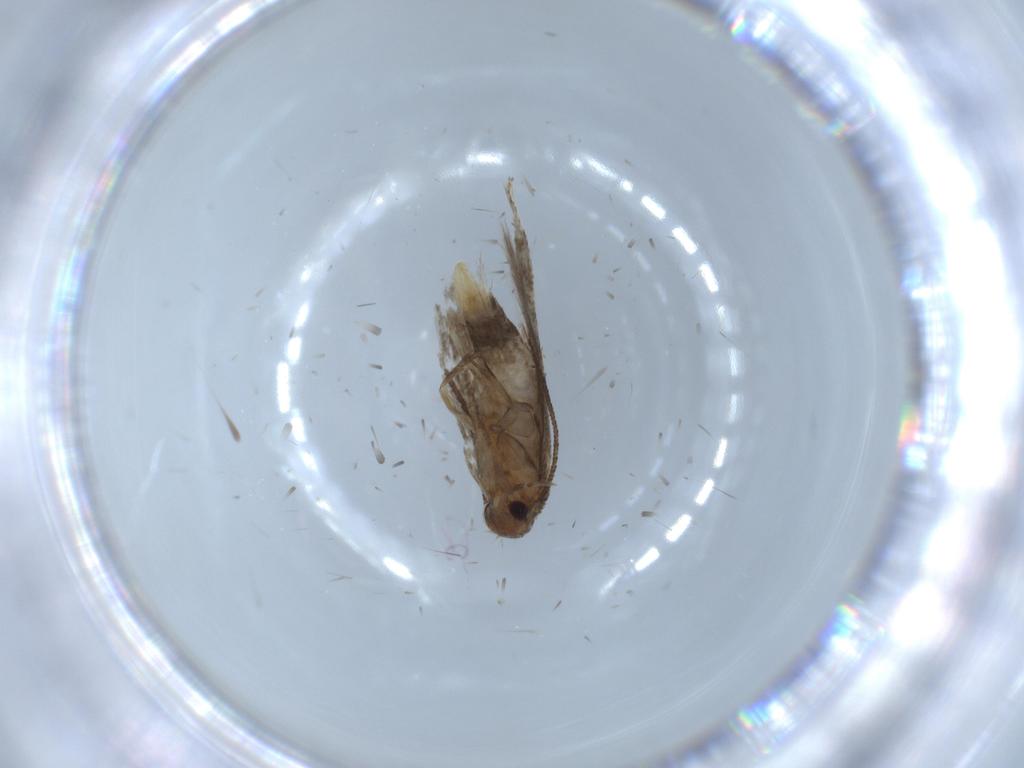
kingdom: Animalia
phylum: Arthropoda
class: Insecta
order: Lepidoptera
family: Elachistidae
